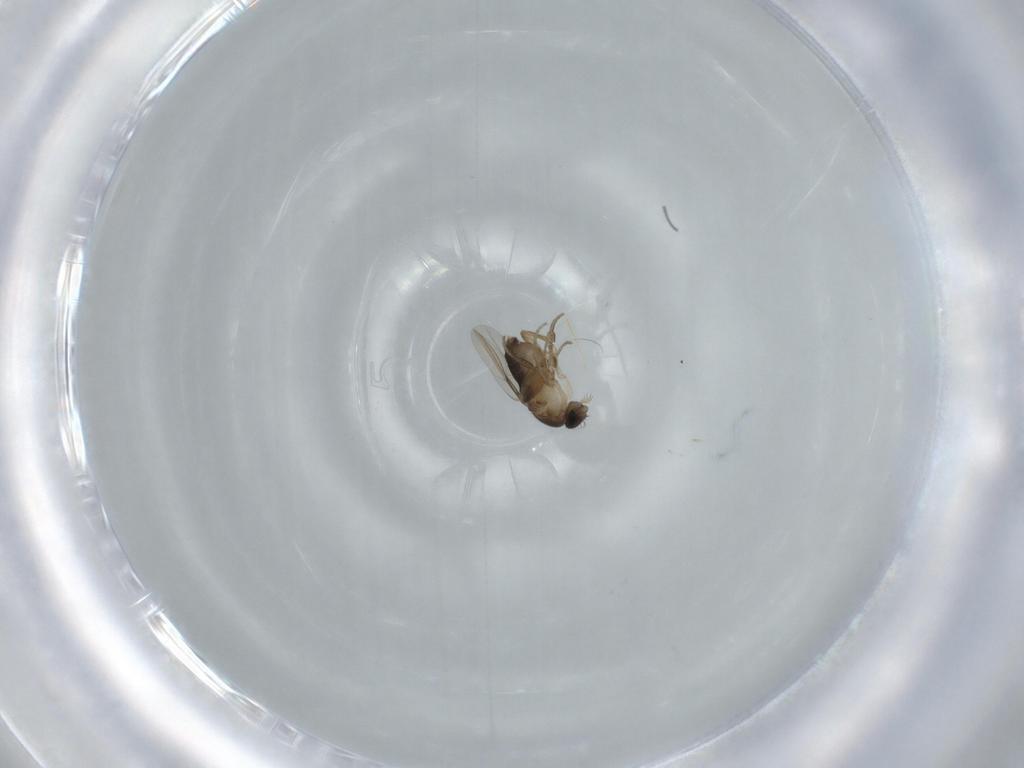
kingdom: Animalia
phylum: Arthropoda
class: Insecta
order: Diptera
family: Phoridae
